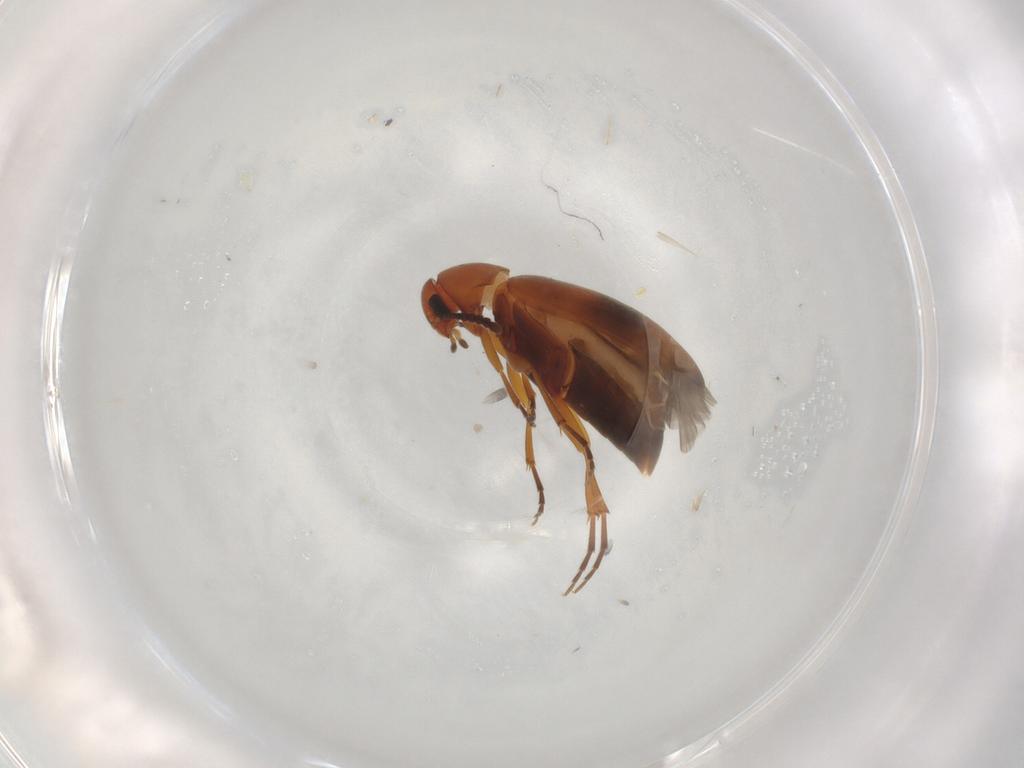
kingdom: Animalia
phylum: Arthropoda
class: Insecta
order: Coleoptera
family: Scraptiidae
